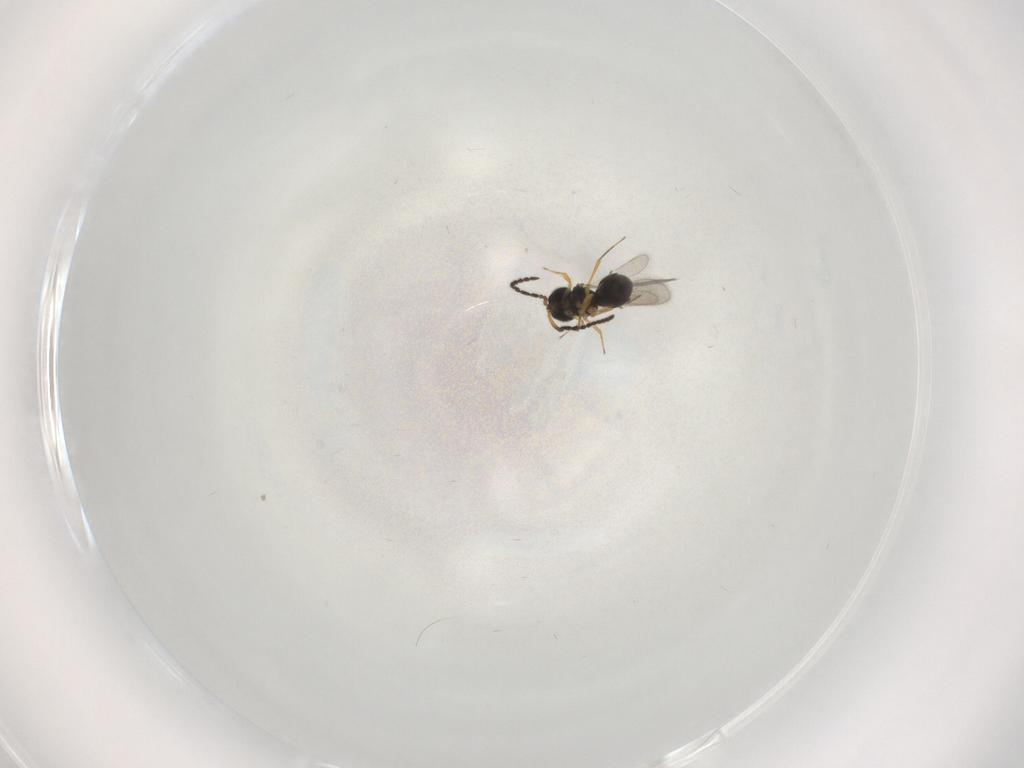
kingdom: Animalia
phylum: Arthropoda
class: Insecta
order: Hymenoptera
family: Scelionidae
